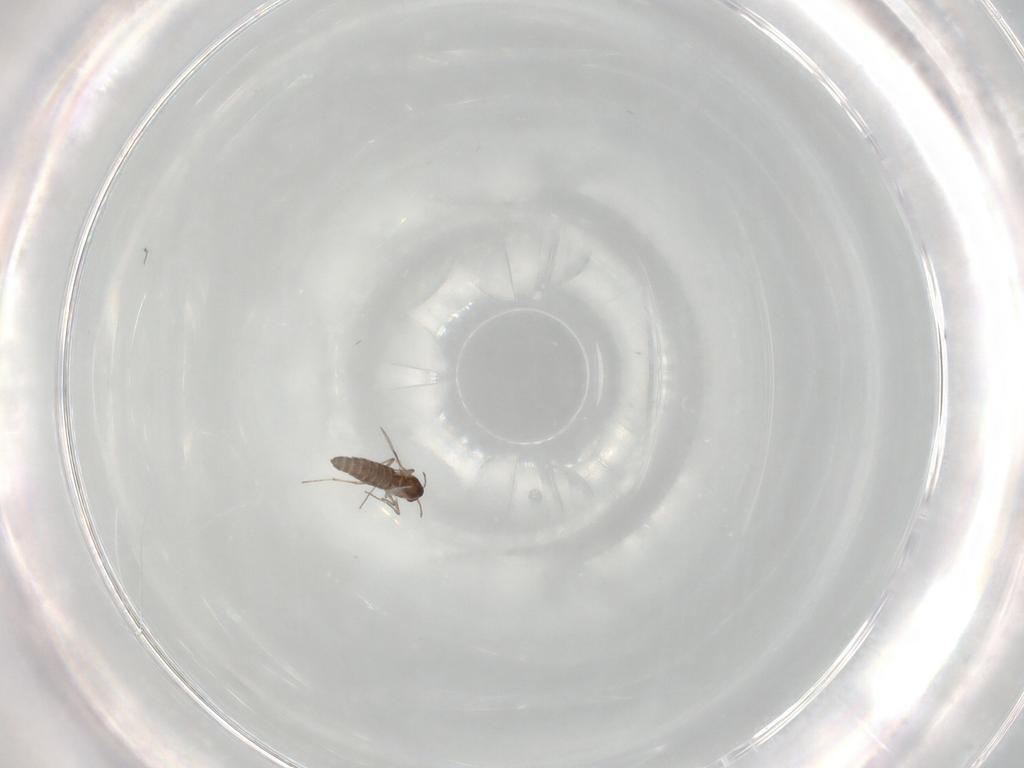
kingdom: Animalia
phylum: Arthropoda
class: Insecta
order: Diptera
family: Chironomidae
